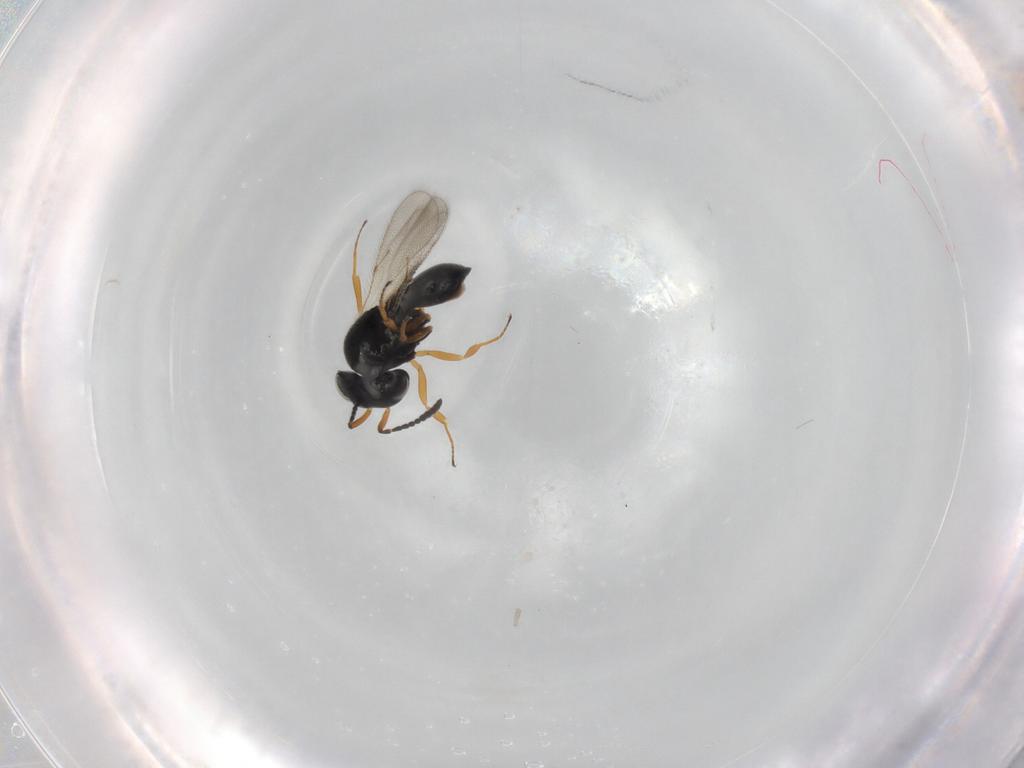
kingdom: Animalia
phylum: Arthropoda
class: Insecta
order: Hymenoptera
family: Scelionidae
